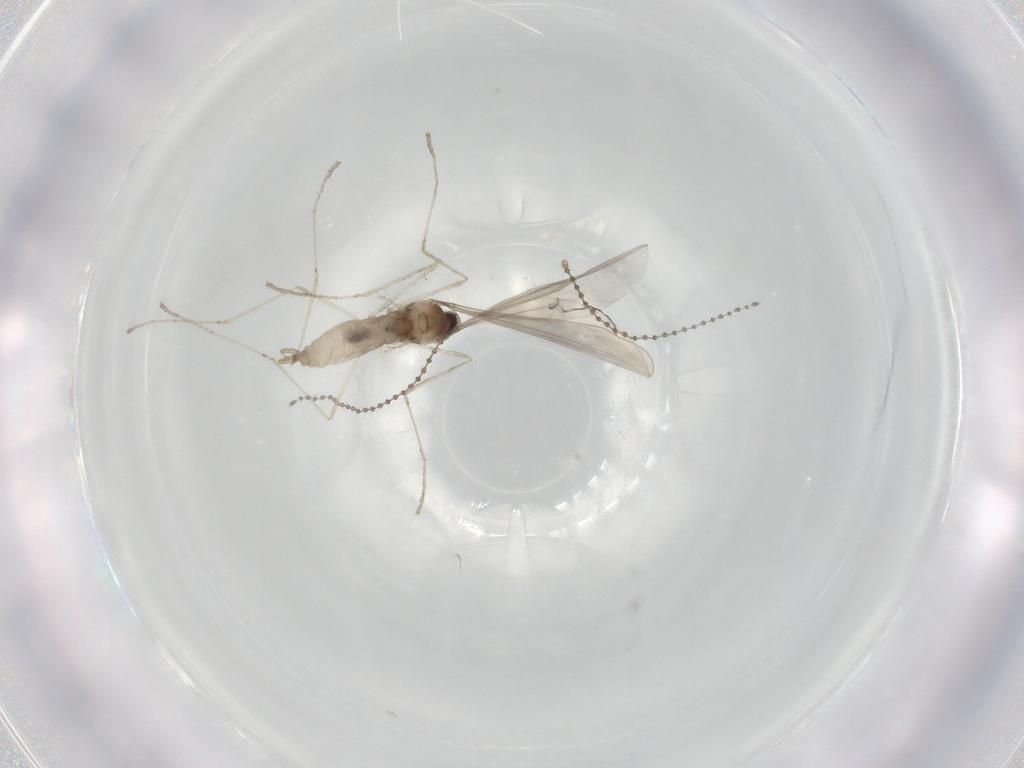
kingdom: Animalia
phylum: Arthropoda
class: Insecta
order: Diptera
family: Cecidomyiidae
